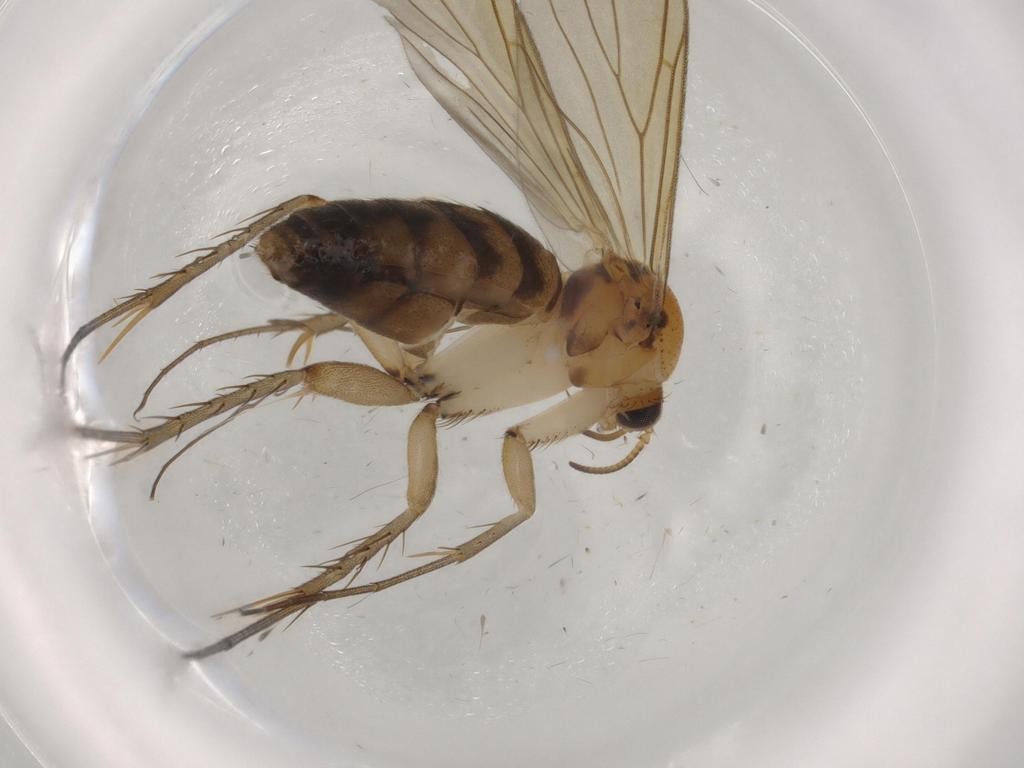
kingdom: Animalia
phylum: Arthropoda
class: Insecta
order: Diptera
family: Mycetophilidae
